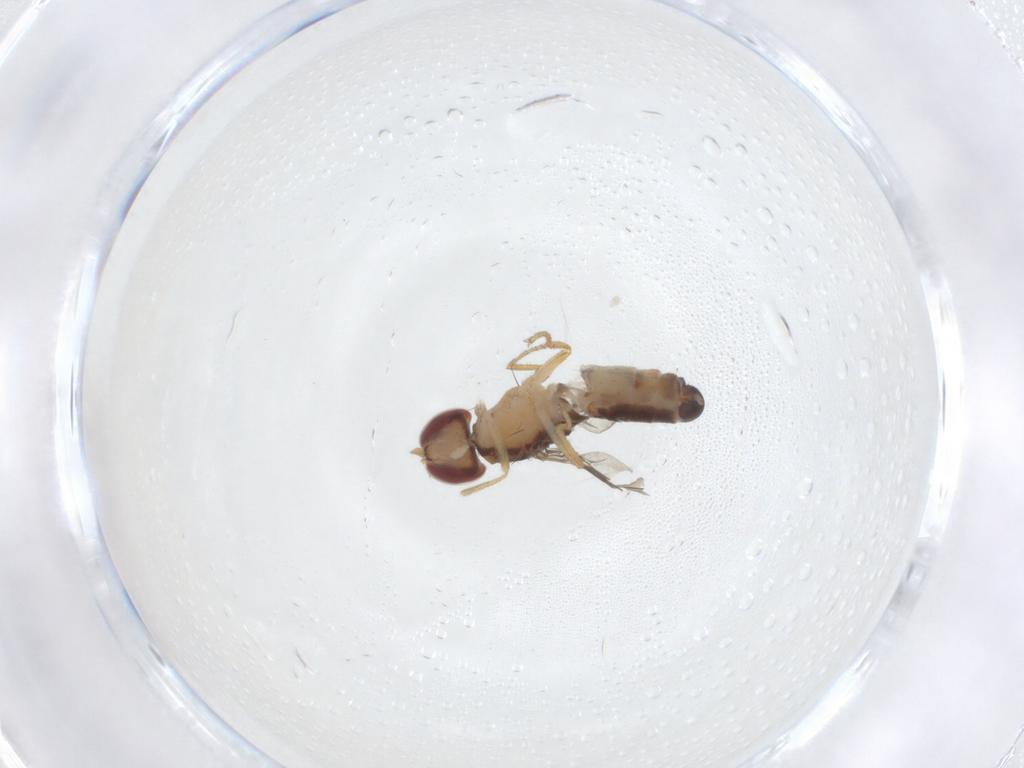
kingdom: Animalia
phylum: Arthropoda
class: Insecta
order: Diptera
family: Anthomyzidae
